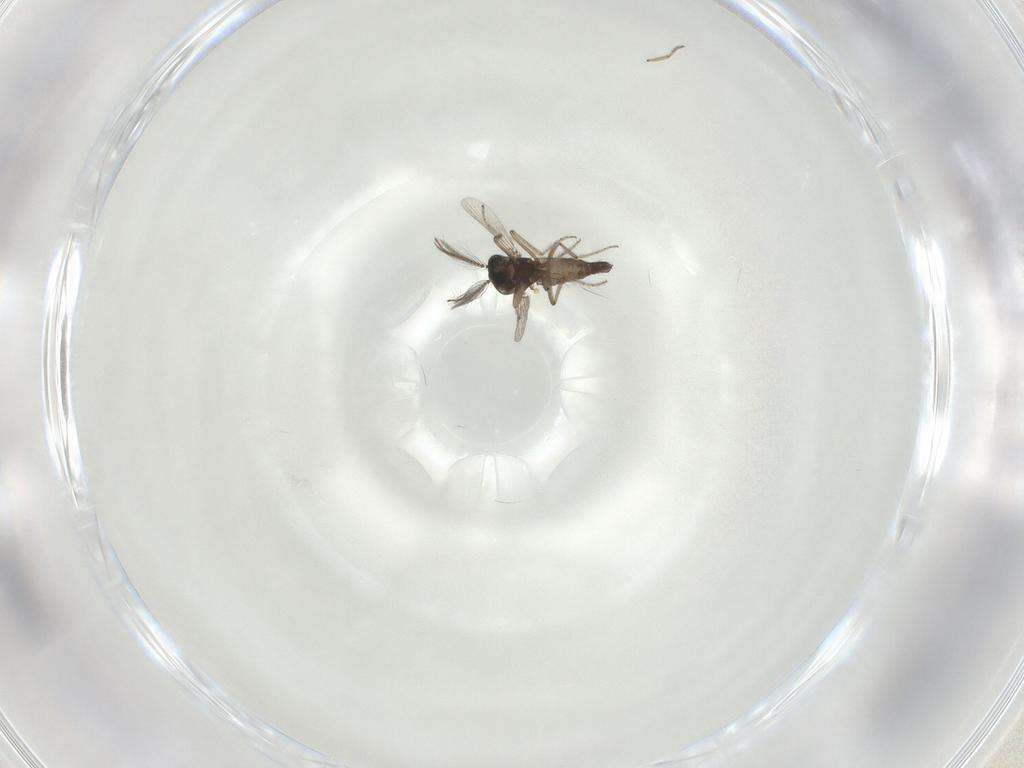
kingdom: Animalia
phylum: Arthropoda
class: Insecta
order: Diptera
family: Ceratopogonidae
